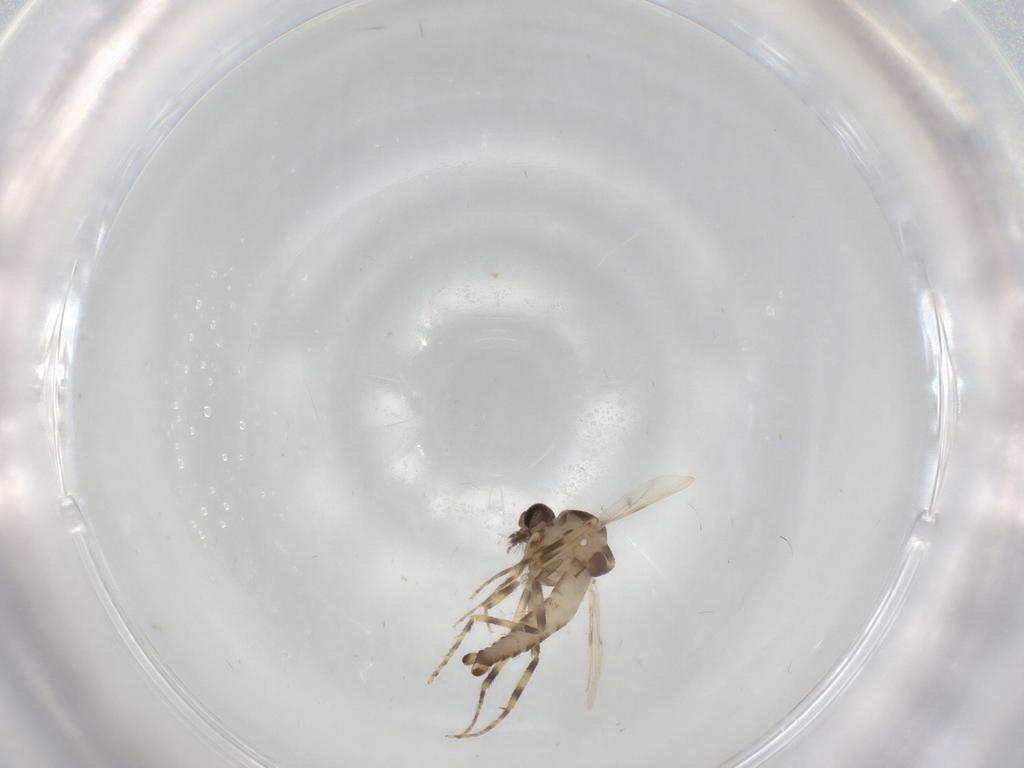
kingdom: Animalia
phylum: Arthropoda
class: Insecta
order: Diptera
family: Ceratopogonidae
